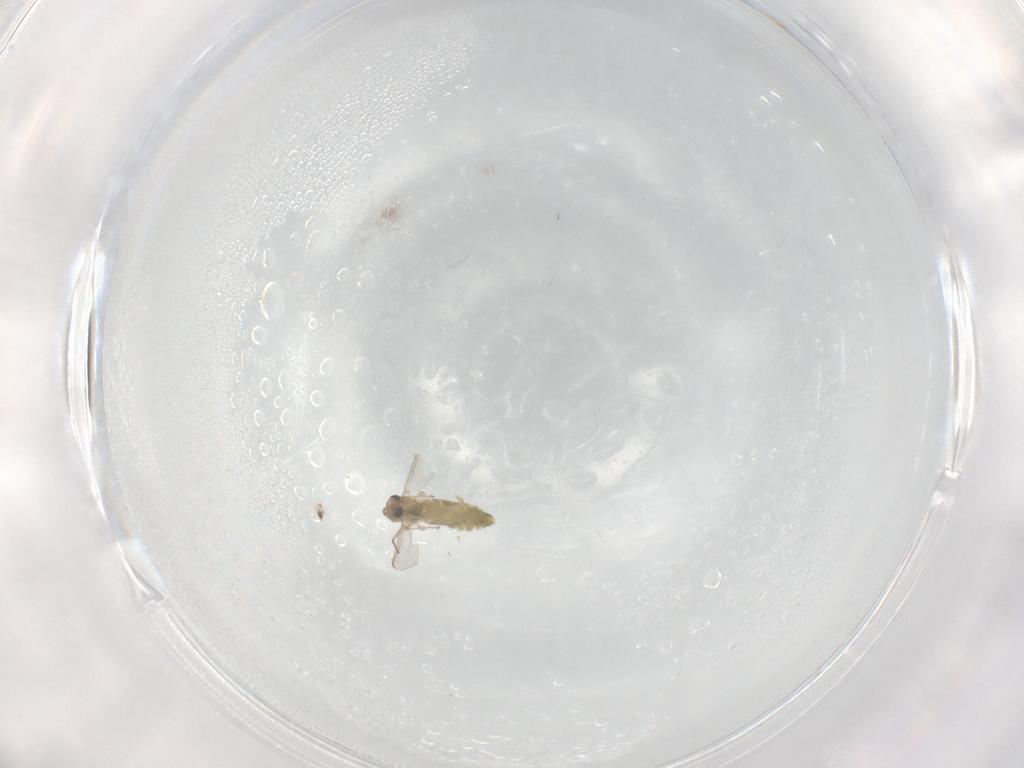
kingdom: Animalia
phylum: Arthropoda
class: Insecta
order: Diptera
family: Chironomidae
